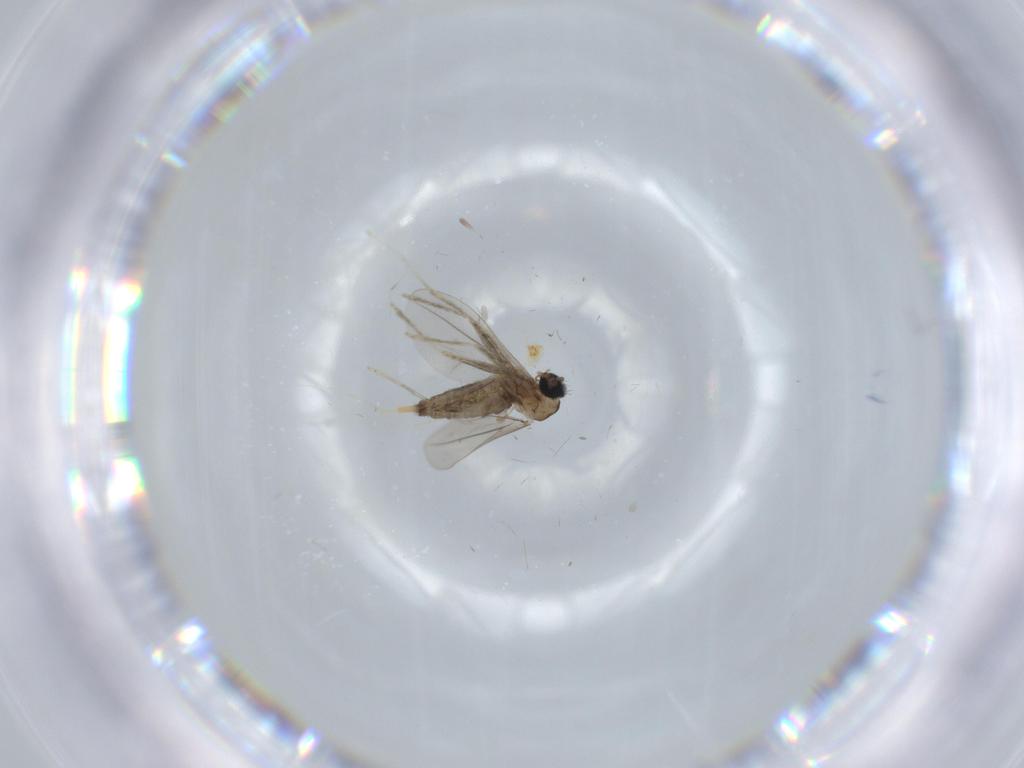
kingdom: Animalia
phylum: Arthropoda
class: Insecta
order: Diptera
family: Cecidomyiidae
